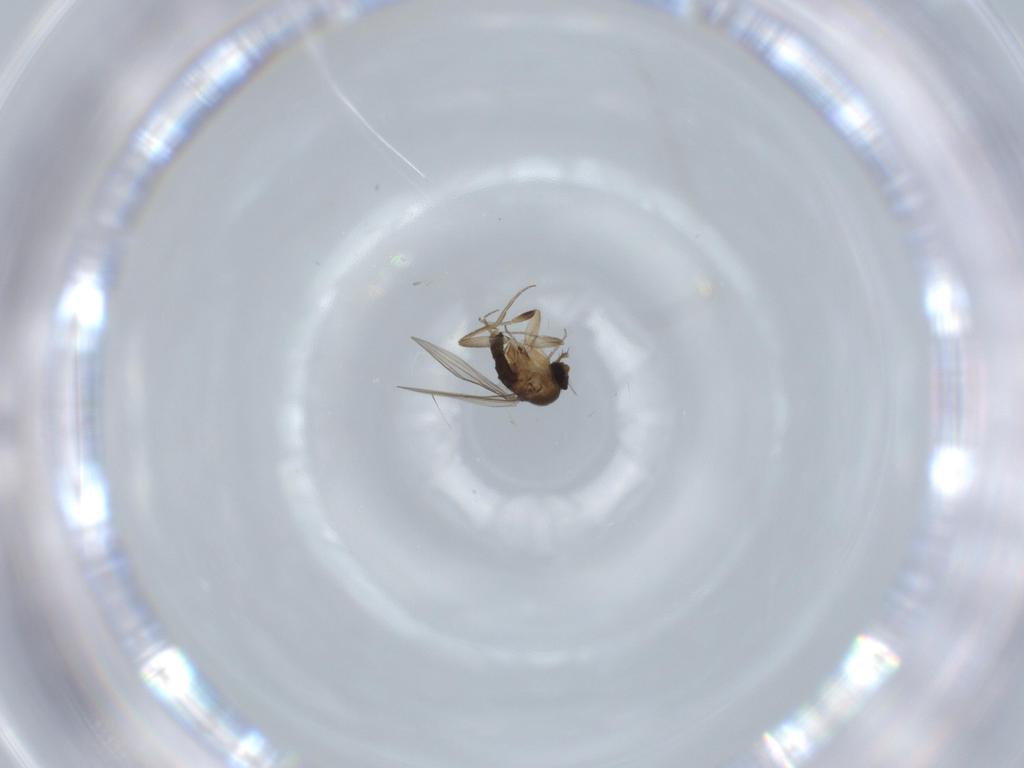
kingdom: Animalia
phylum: Arthropoda
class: Insecta
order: Diptera
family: Phoridae
